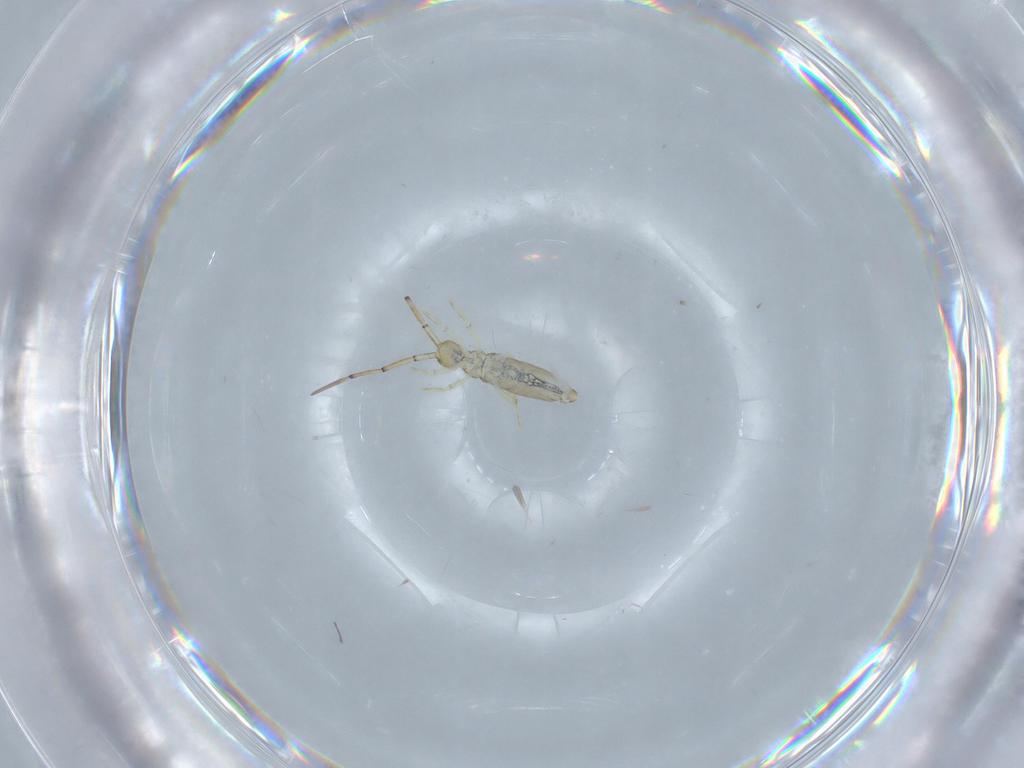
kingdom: Animalia
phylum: Arthropoda
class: Collembola
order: Entomobryomorpha
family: Paronellidae
